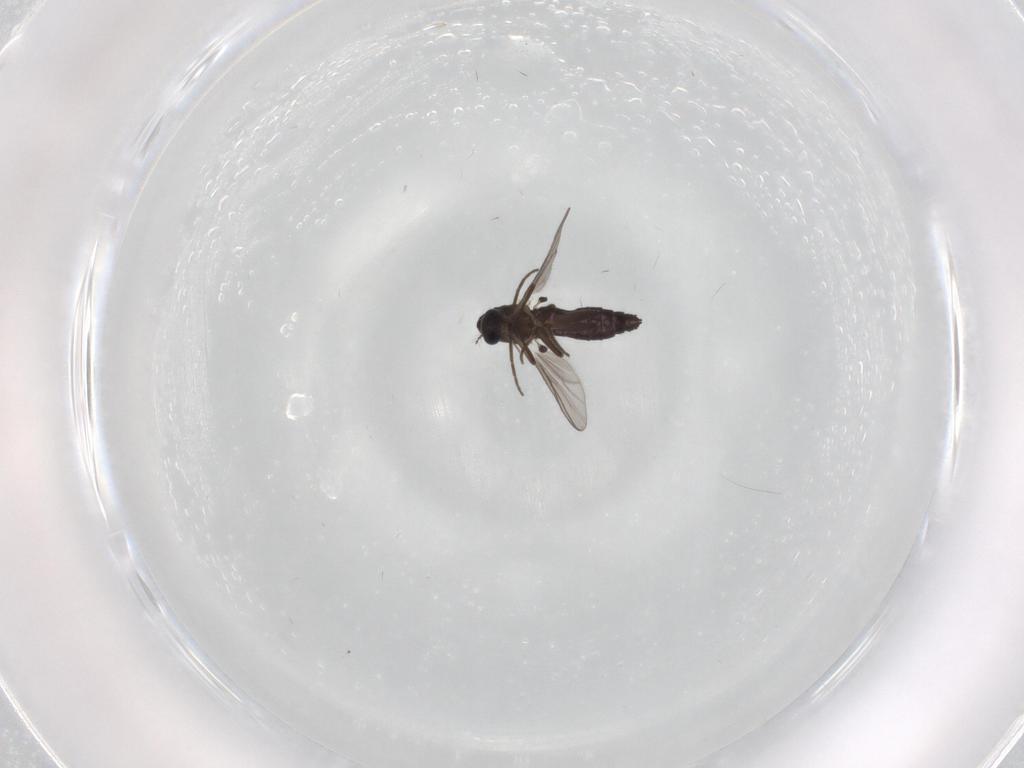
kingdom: Animalia
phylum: Arthropoda
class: Insecta
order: Diptera
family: Chironomidae
